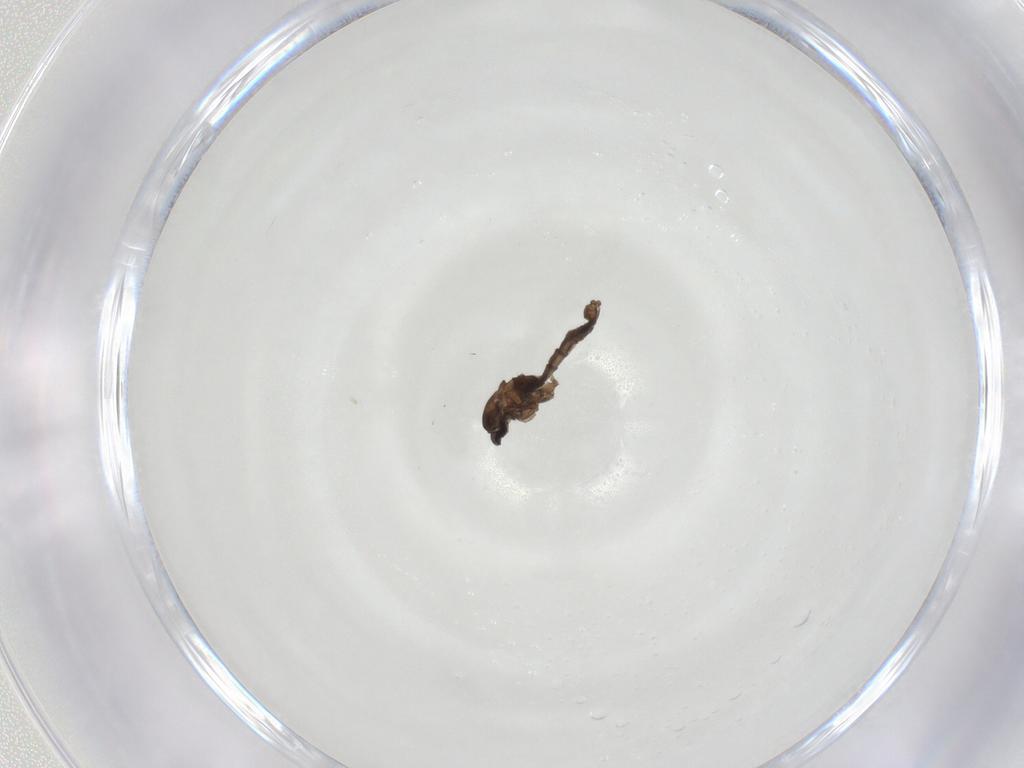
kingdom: Animalia
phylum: Arthropoda
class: Insecta
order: Diptera
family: Cecidomyiidae
